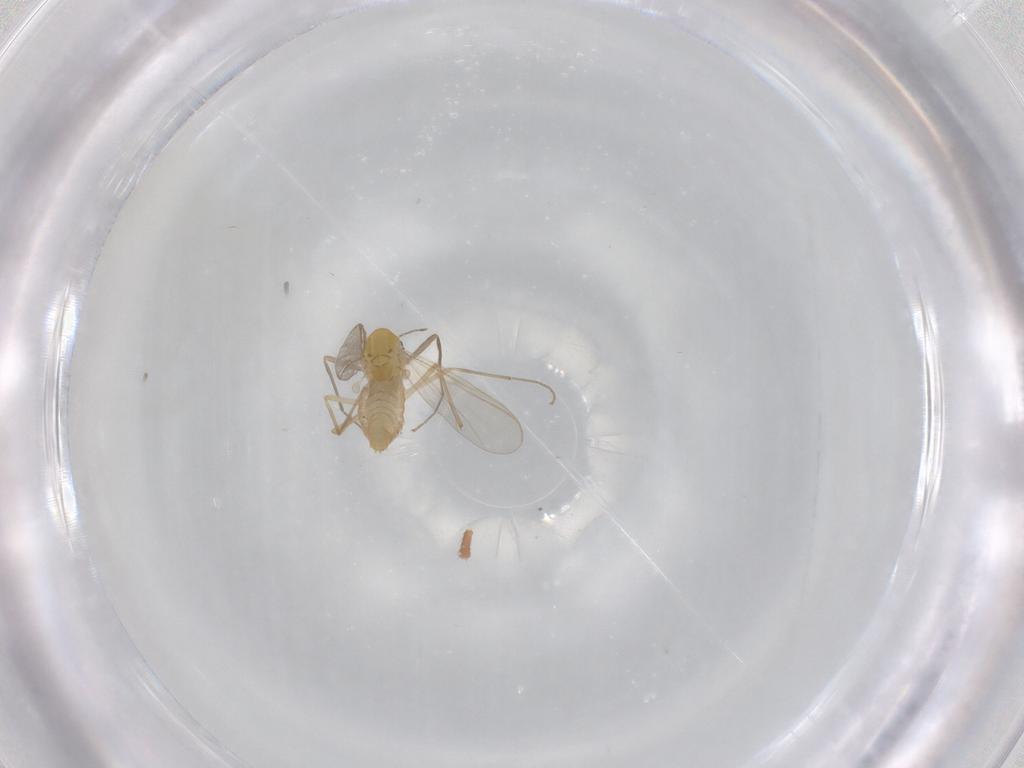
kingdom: Animalia
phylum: Arthropoda
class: Insecta
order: Diptera
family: Chironomidae
